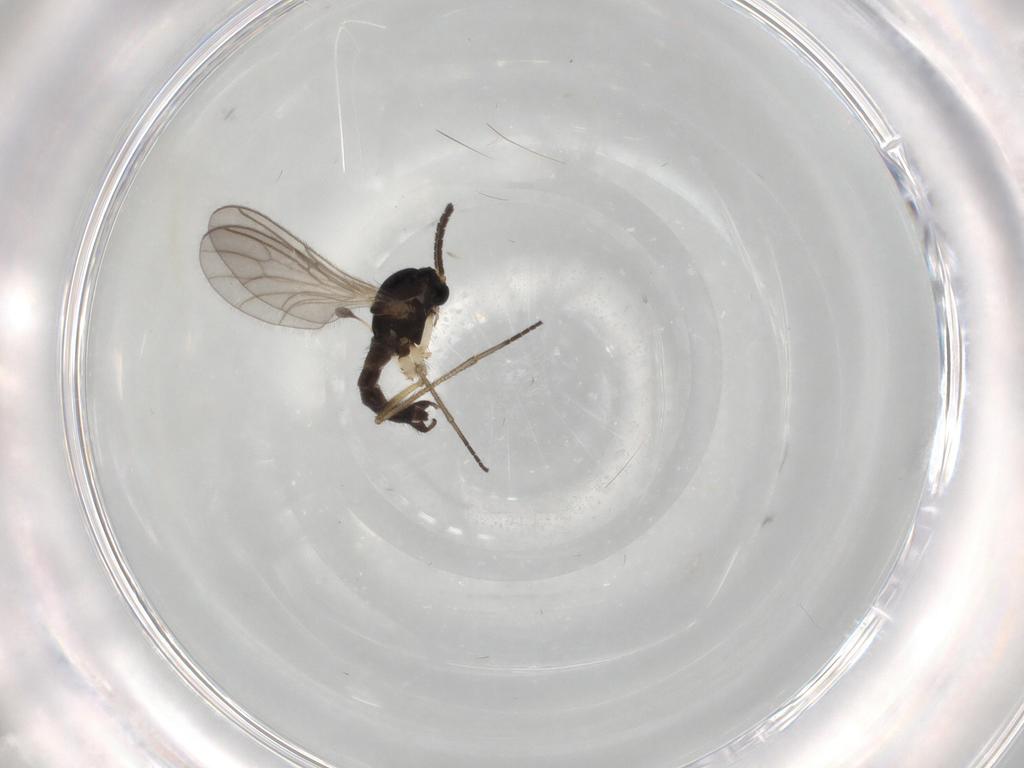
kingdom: Animalia
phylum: Arthropoda
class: Insecta
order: Diptera
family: Sciaridae
